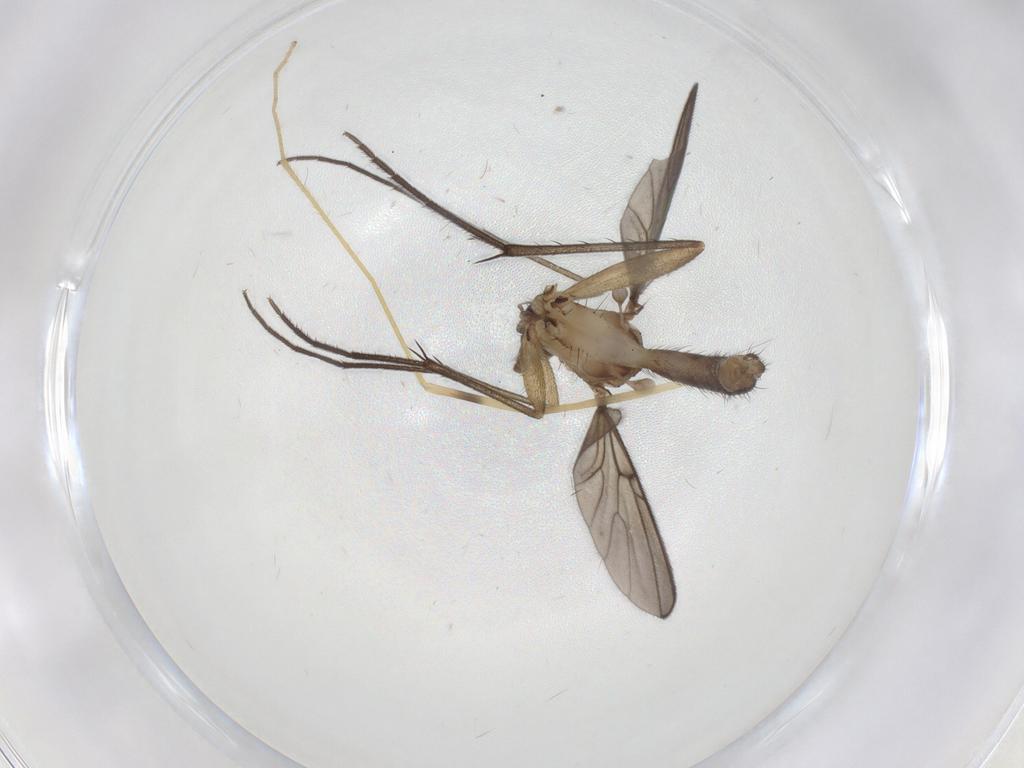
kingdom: Animalia
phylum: Arthropoda
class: Insecta
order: Diptera
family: Mycetophilidae
